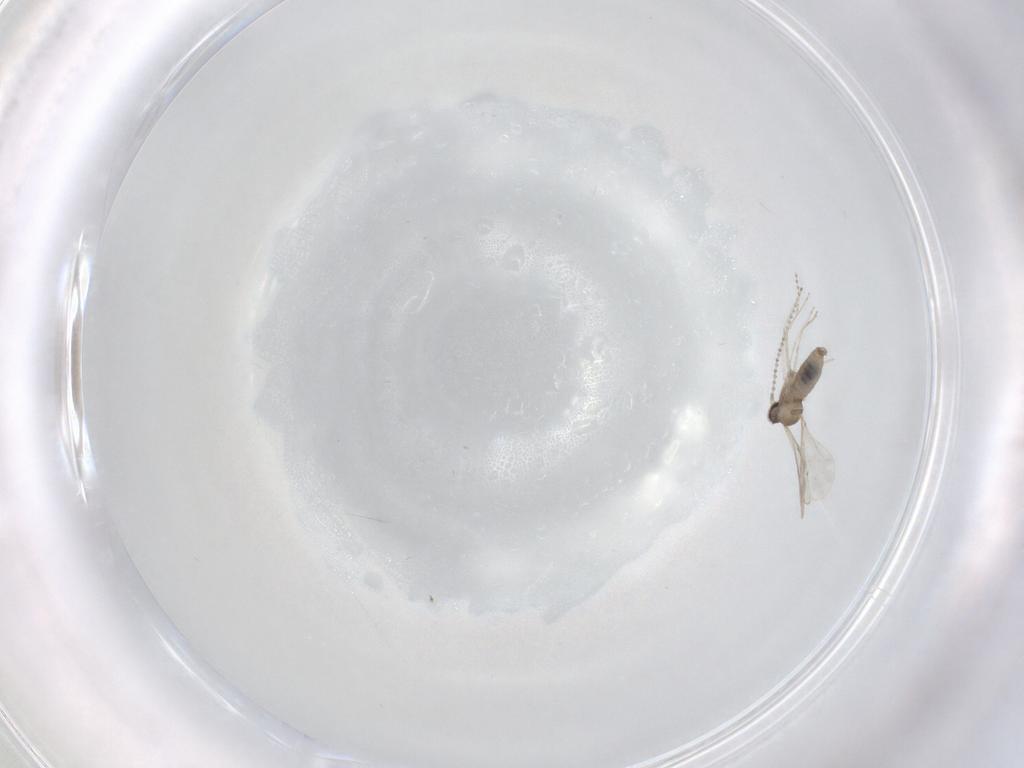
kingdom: Animalia
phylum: Arthropoda
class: Insecta
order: Diptera
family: Cecidomyiidae
